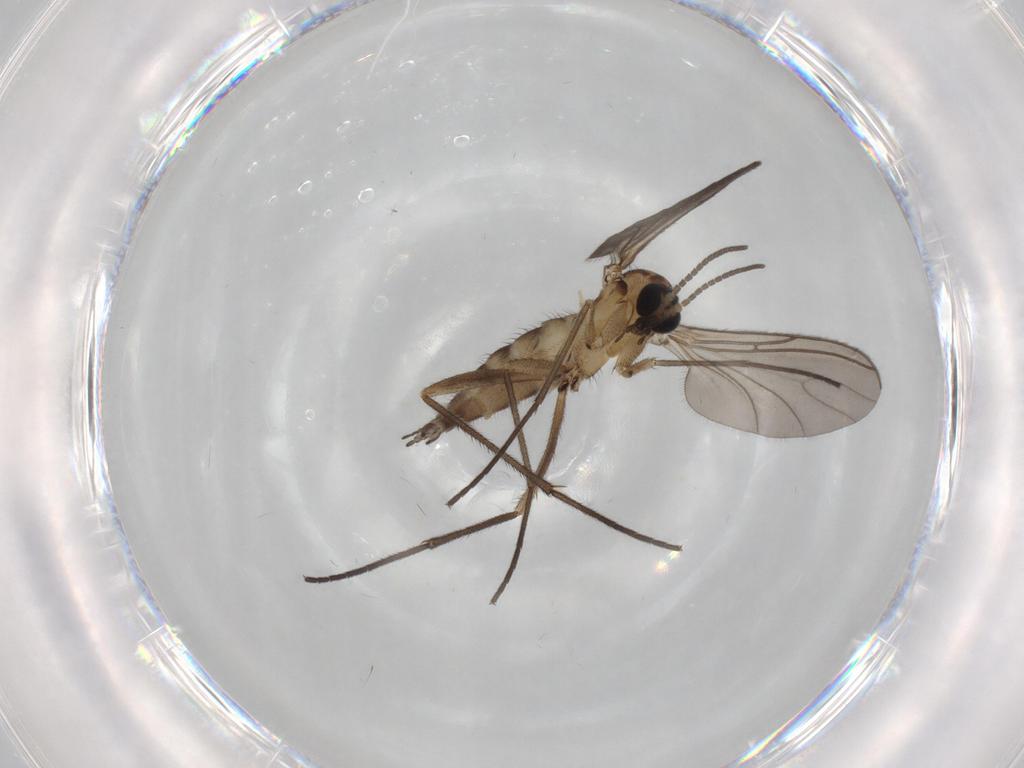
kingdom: Animalia
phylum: Arthropoda
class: Insecta
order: Diptera
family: Sciaridae
